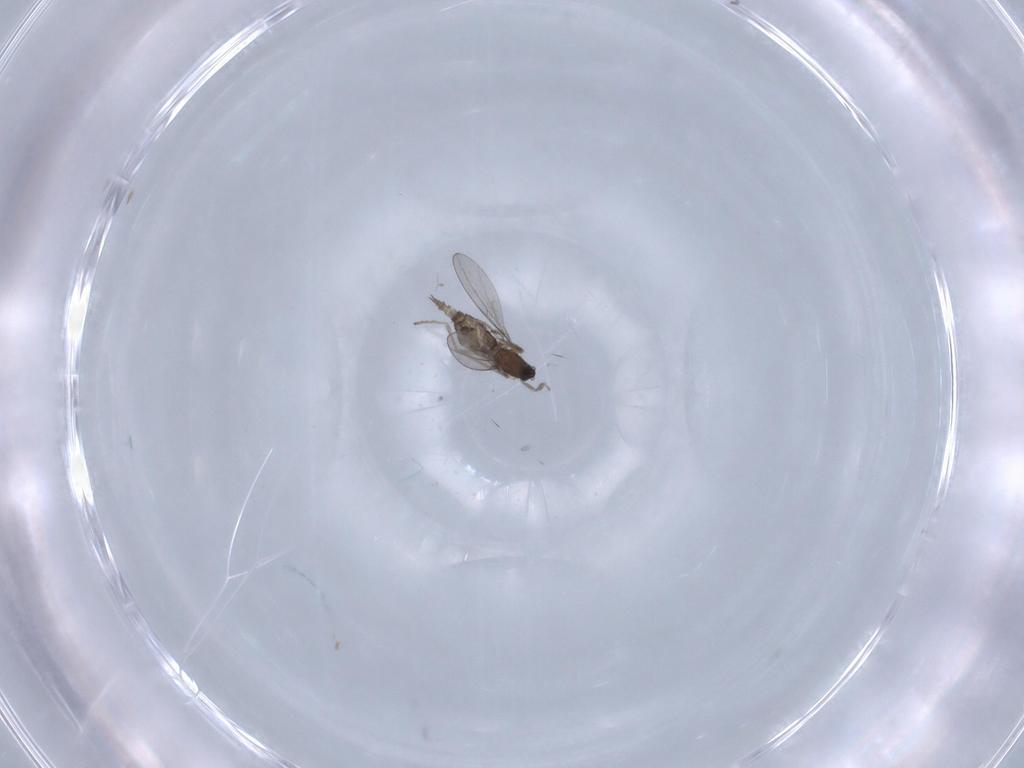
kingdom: Animalia
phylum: Arthropoda
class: Insecta
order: Diptera
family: Cecidomyiidae
